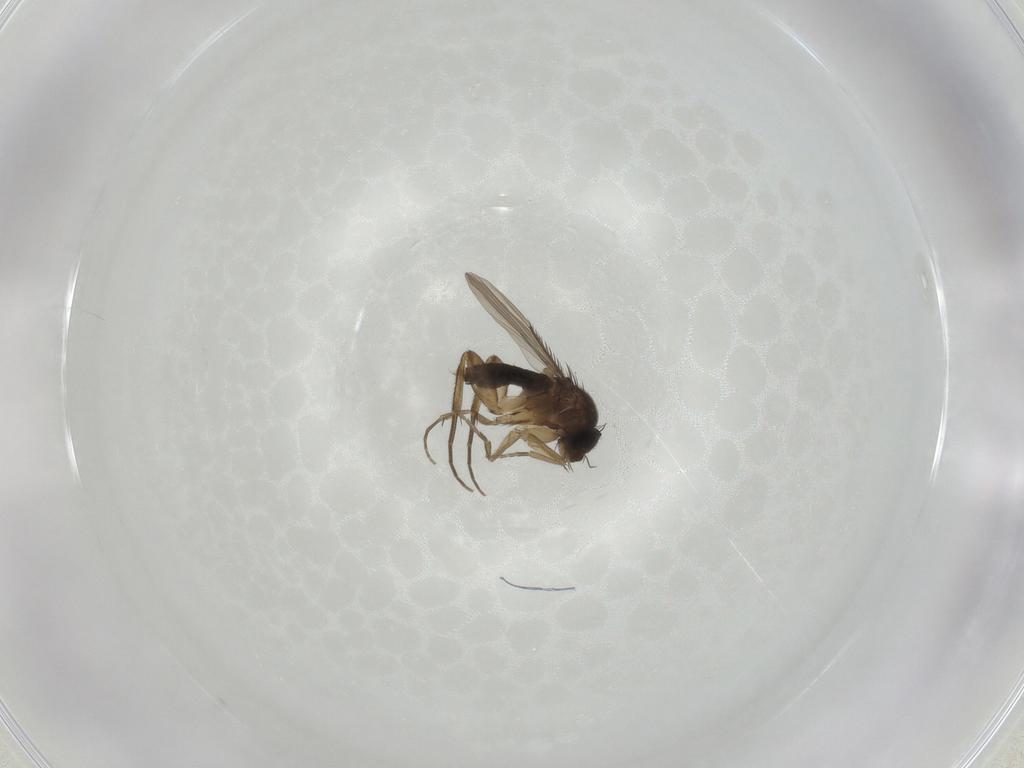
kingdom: Animalia
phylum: Arthropoda
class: Insecta
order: Diptera
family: Phoridae
